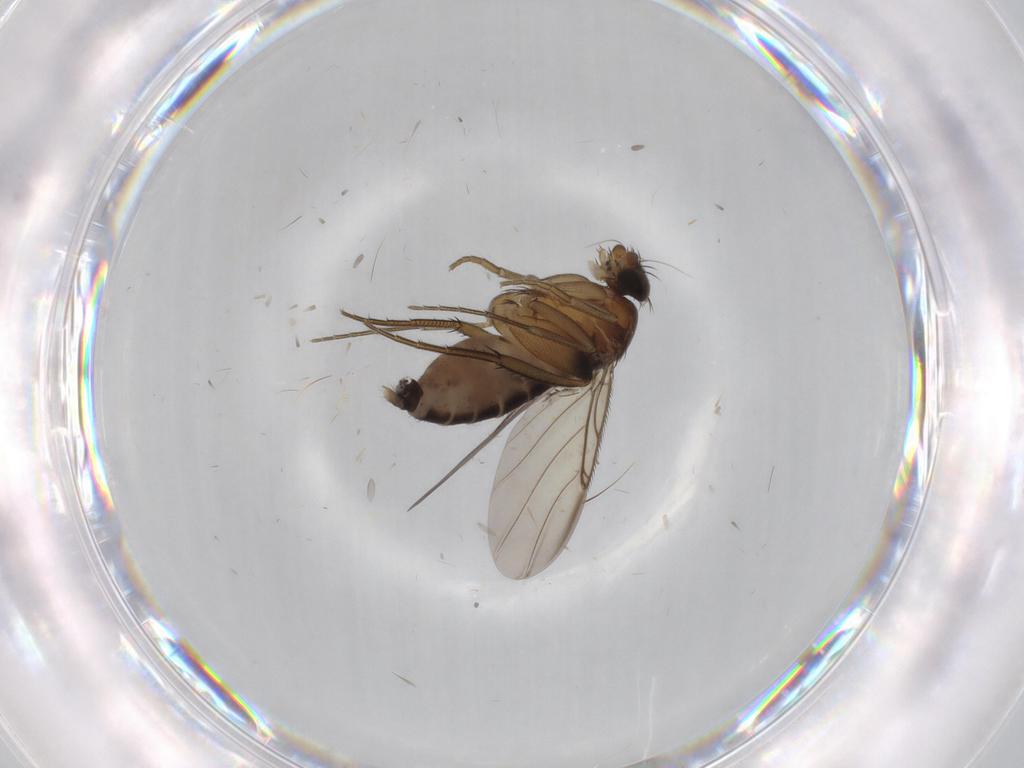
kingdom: Animalia
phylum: Arthropoda
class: Insecta
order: Diptera
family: Phoridae
